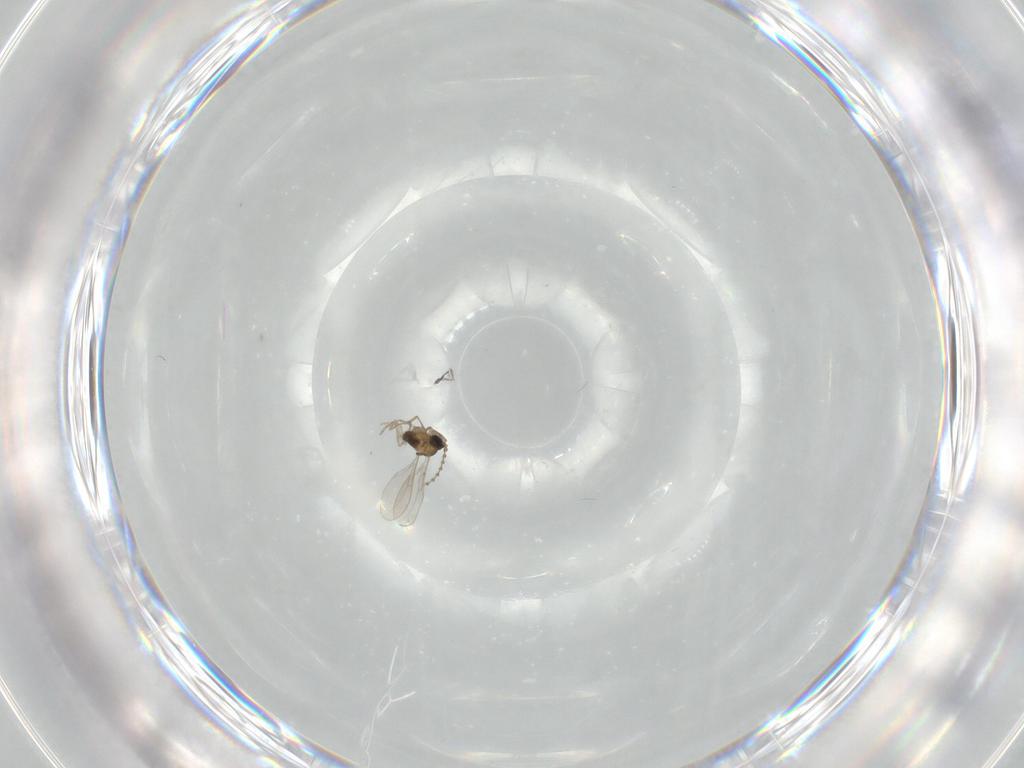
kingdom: Animalia
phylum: Arthropoda
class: Insecta
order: Diptera
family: Cecidomyiidae
